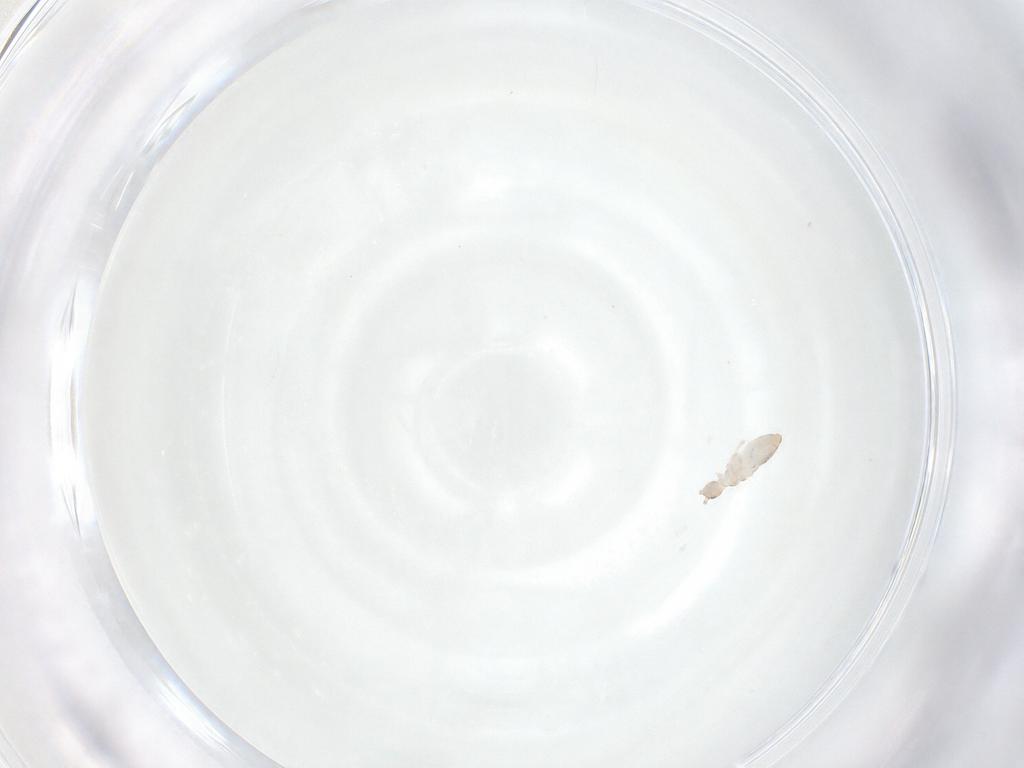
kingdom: Animalia
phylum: Arthropoda
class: Collembola
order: Entomobryomorpha
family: Entomobryidae
